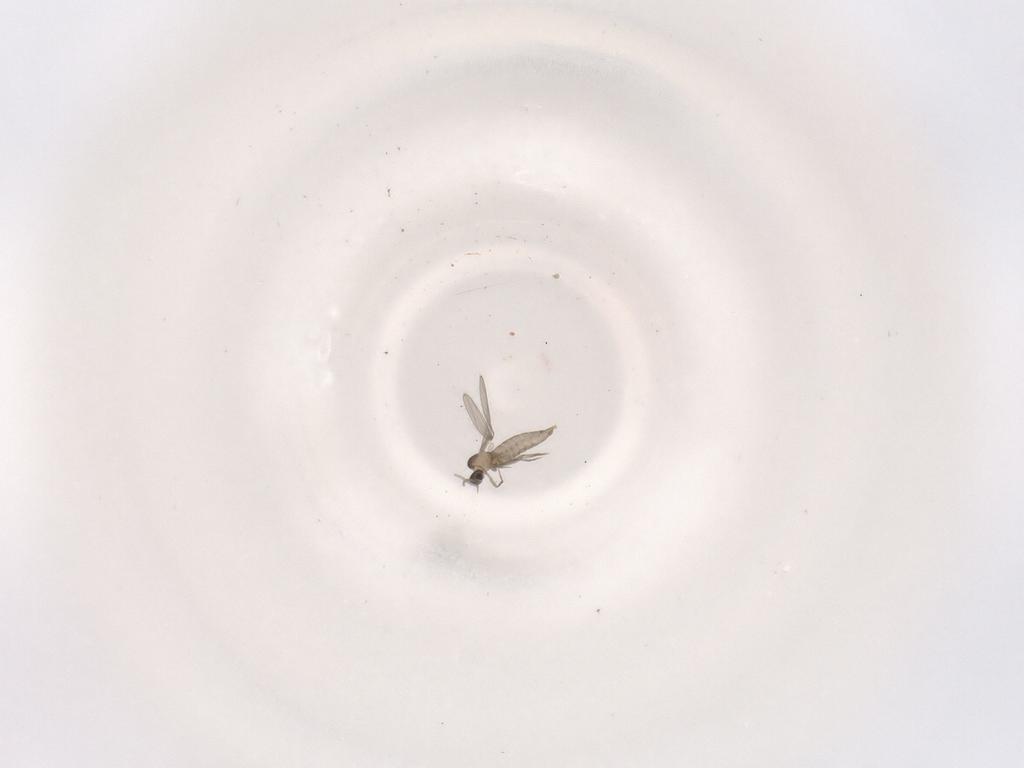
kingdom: Animalia
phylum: Arthropoda
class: Insecta
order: Diptera
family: Cecidomyiidae
